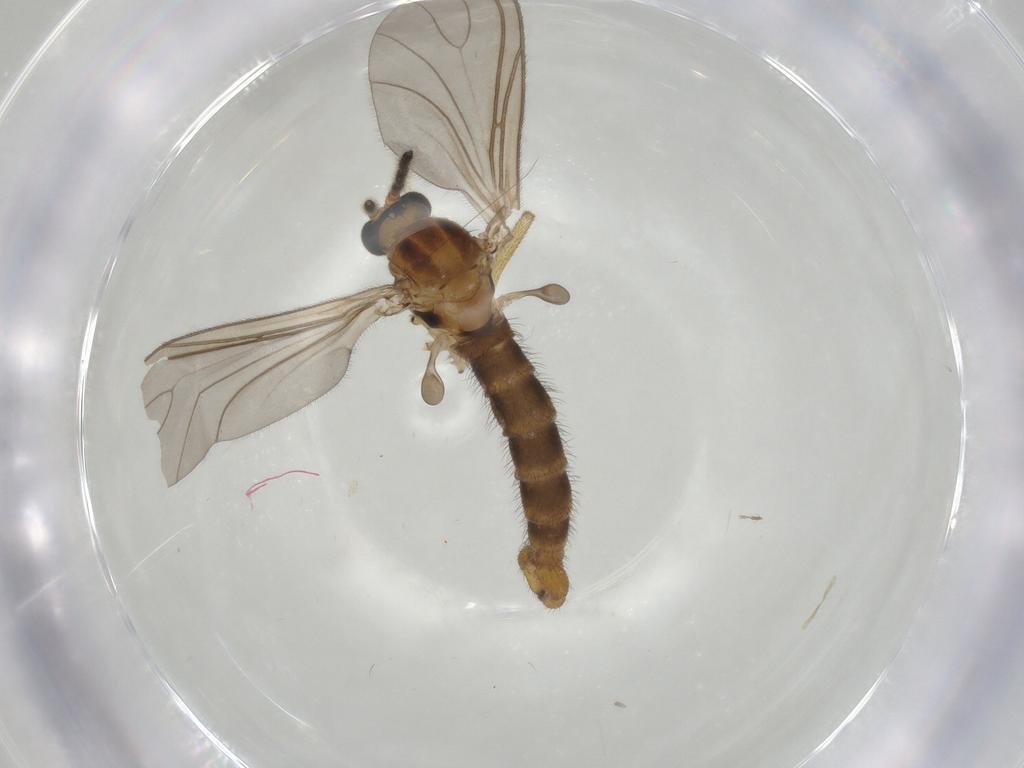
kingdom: Animalia
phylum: Arthropoda
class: Insecta
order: Diptera
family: Sciaridae
